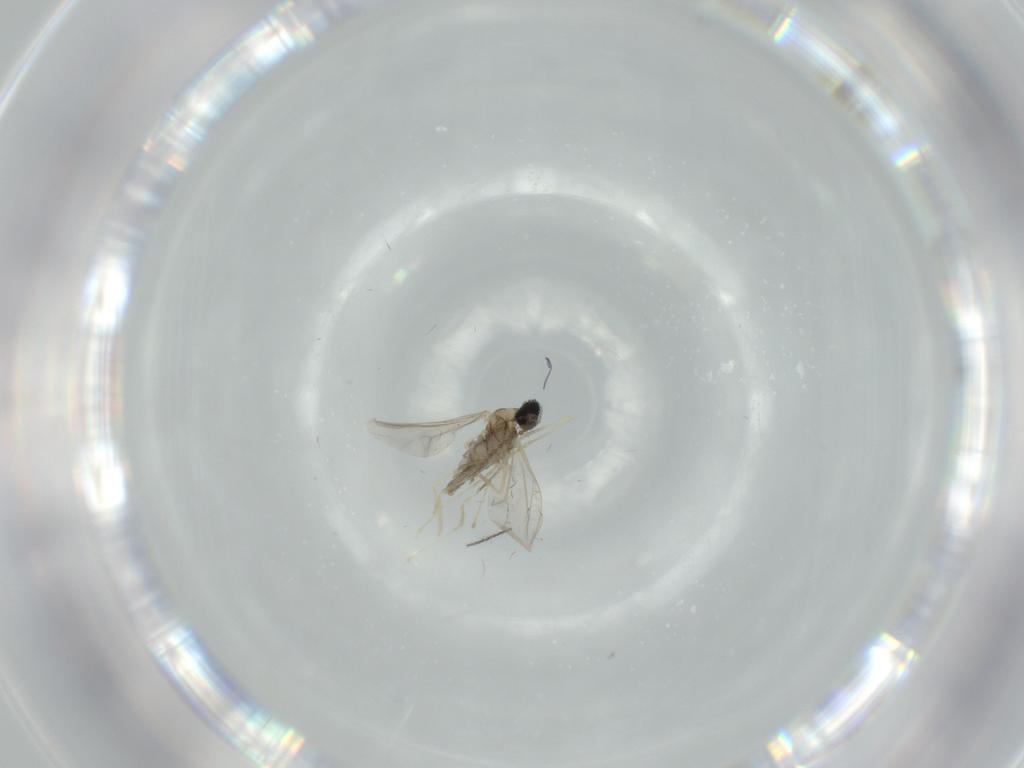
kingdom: Animalia
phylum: Arthropoda
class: Insecta
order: Diptera
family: Cecidomyiidae
